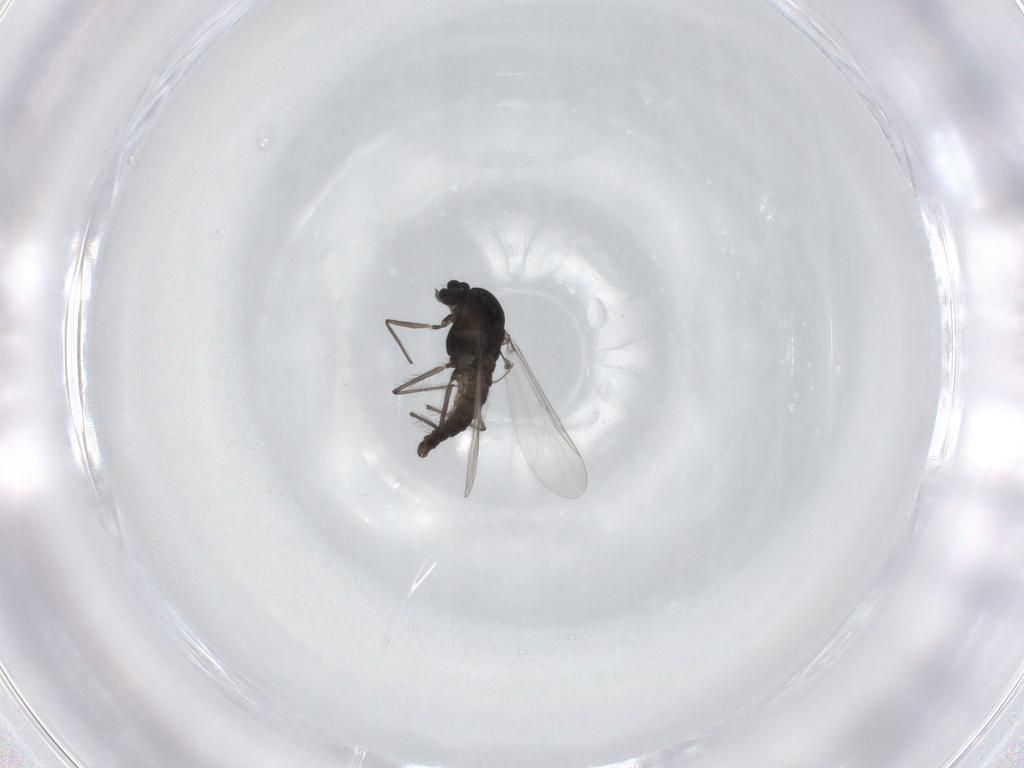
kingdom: Animalia
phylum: Arthropoda
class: Insecta
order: Diptera
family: Chironomidae
